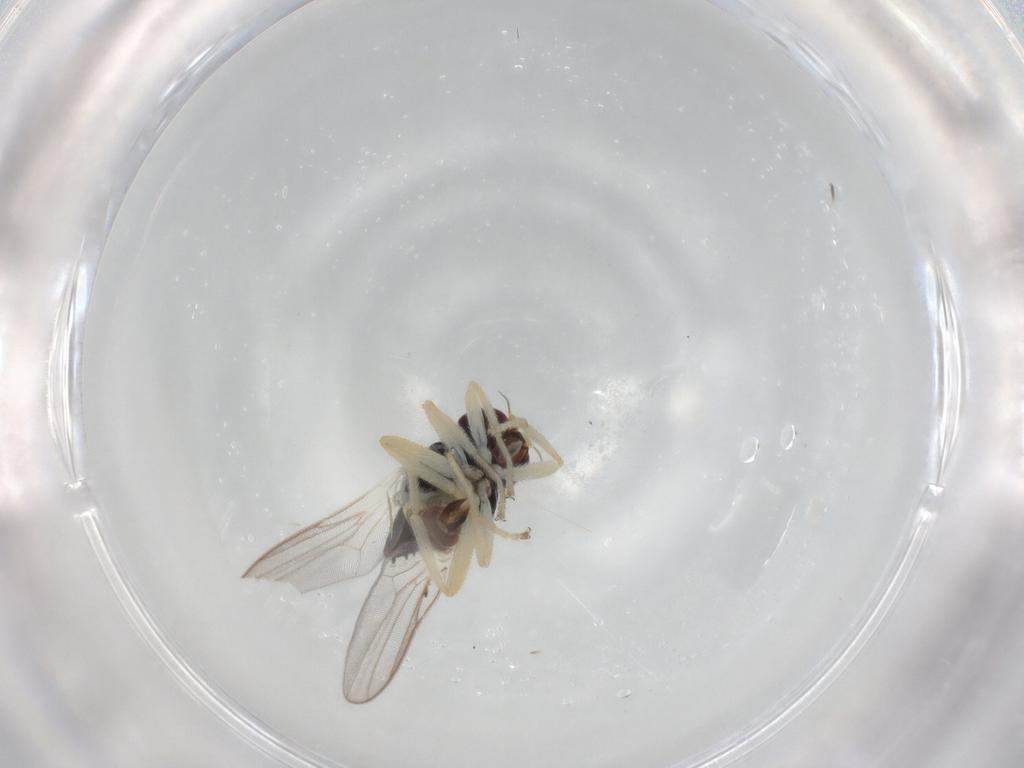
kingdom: Animalia
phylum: Arthropoda
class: Insecta
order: Diptera
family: Chloropidae
